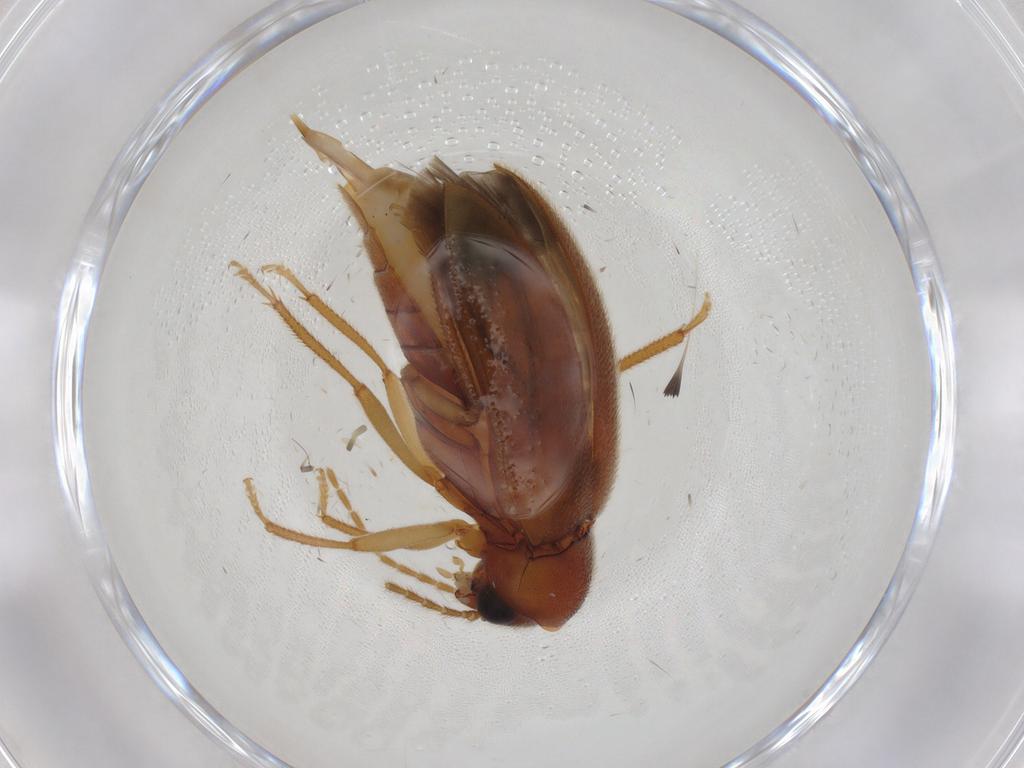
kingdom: Animalia
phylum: Arthropoda
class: Insecta
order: Coleoptera
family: Ptilodactylidae
